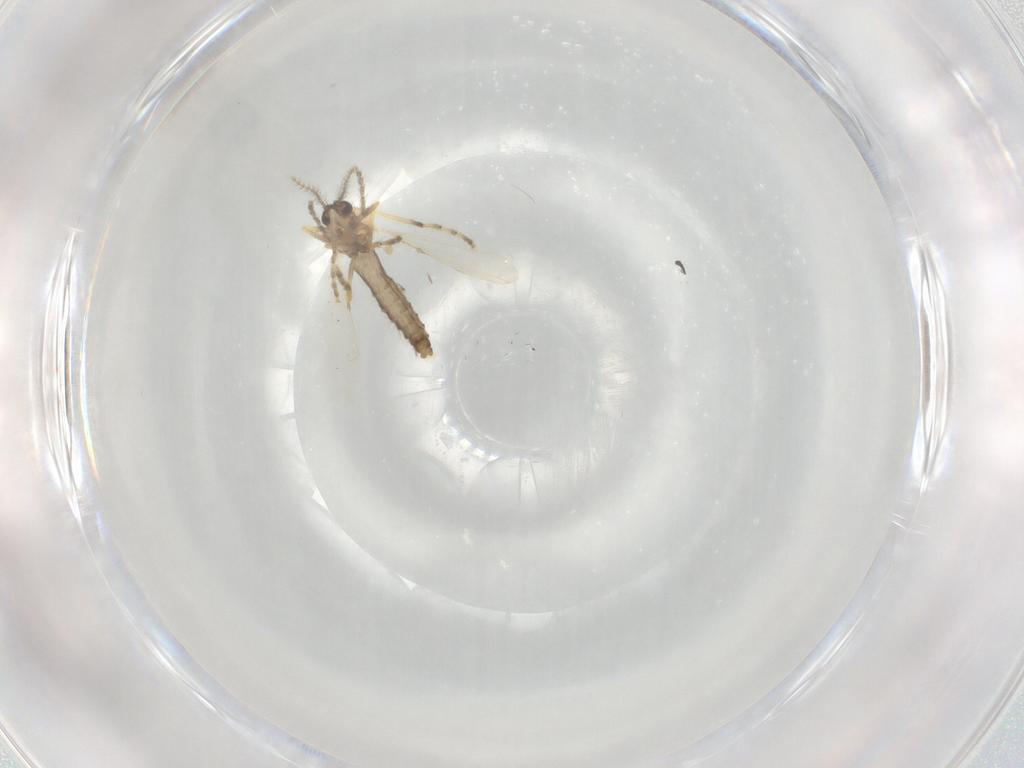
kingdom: Animalia
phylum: Arthropoda
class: Insecta
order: Diptera
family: Ceratopogonidae
